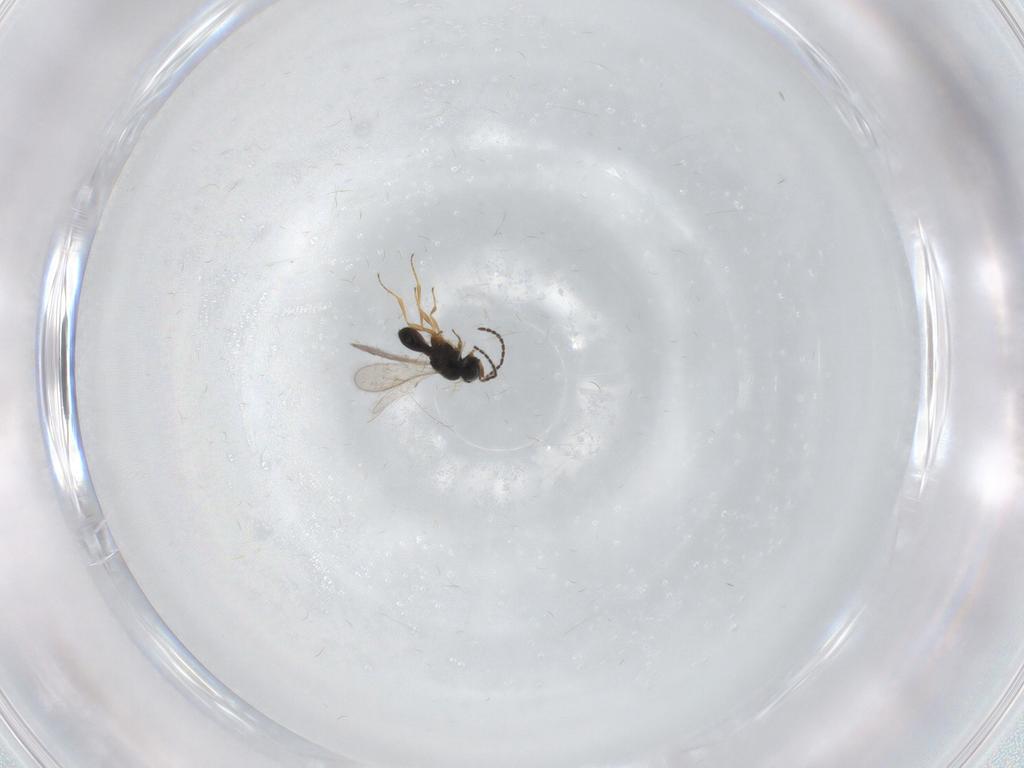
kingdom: Animalia
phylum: Arthropoda
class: Insecta
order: Hymenoptera
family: Scelionidae
